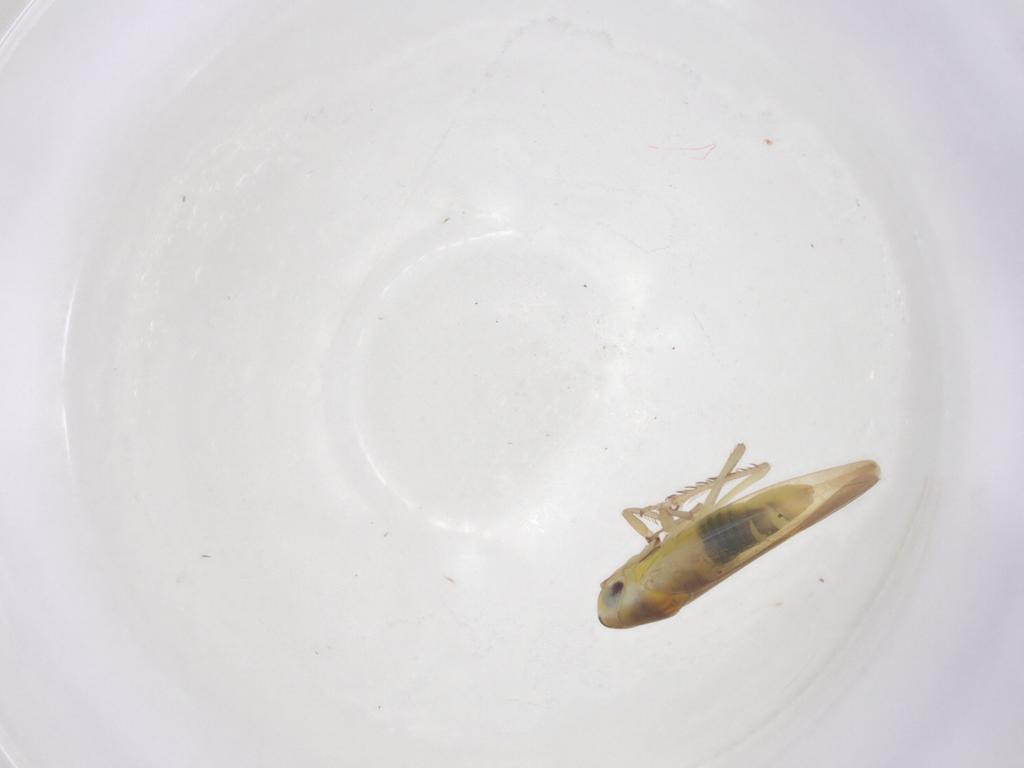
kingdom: Animalia
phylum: Arthropoda
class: Insecta
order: Hemiptera
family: Cicadellidae
